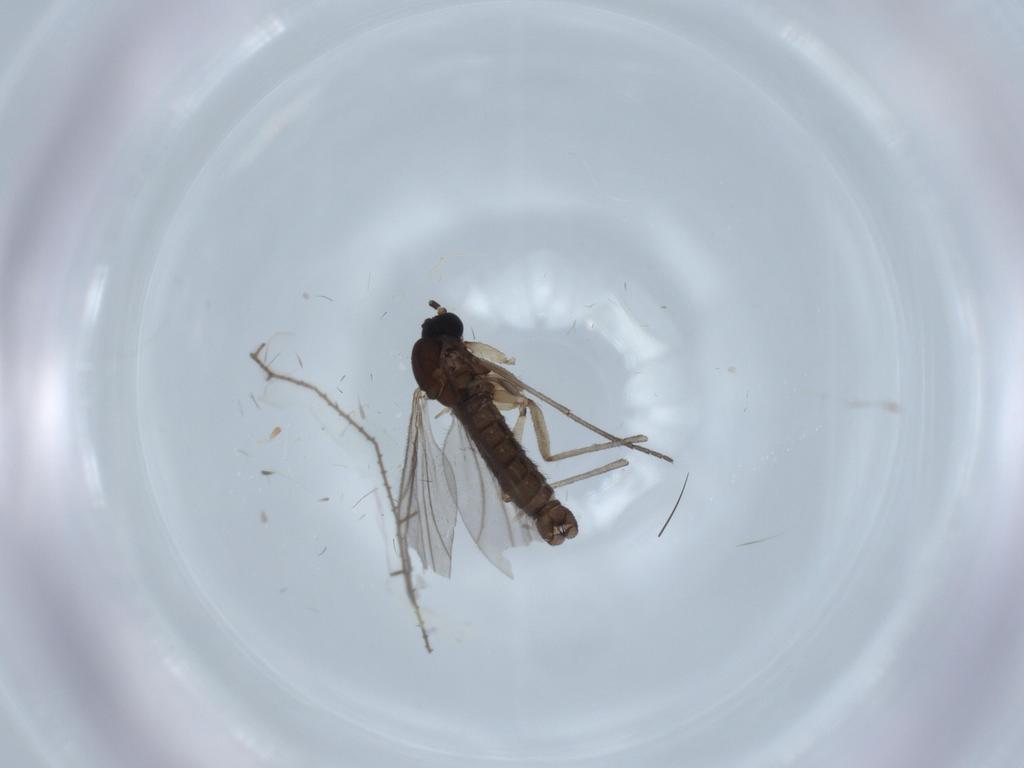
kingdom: Animalia
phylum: Arthropoda
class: Insecta
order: Diptera
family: Sciaridae
